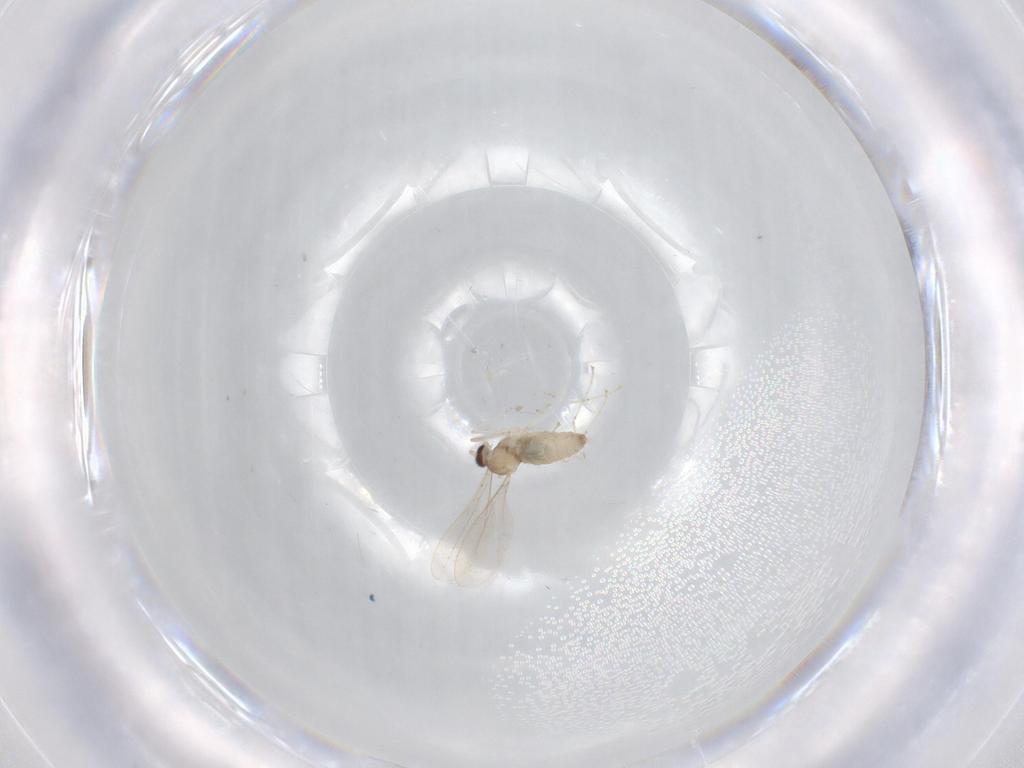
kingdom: Animalia
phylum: Arthropoda
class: Insecta
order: Diptera
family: Cecidomyiidae
